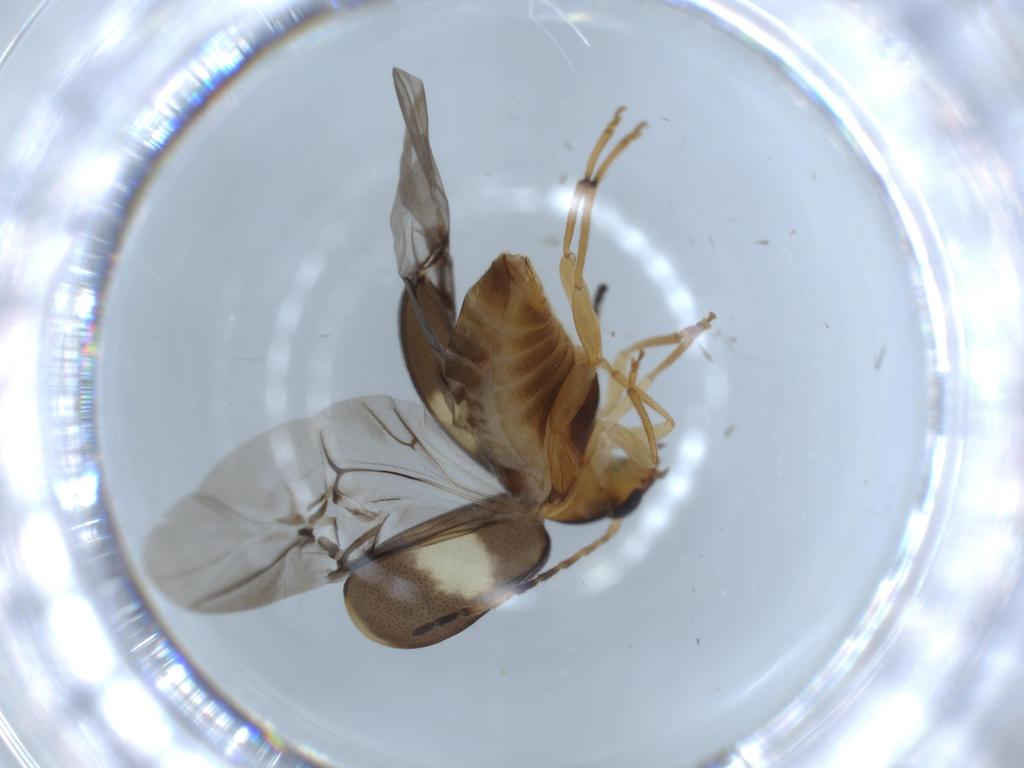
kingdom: Animalia
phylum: Arthropoda
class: Insecta
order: Coleoptera
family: Chrysomelidae
